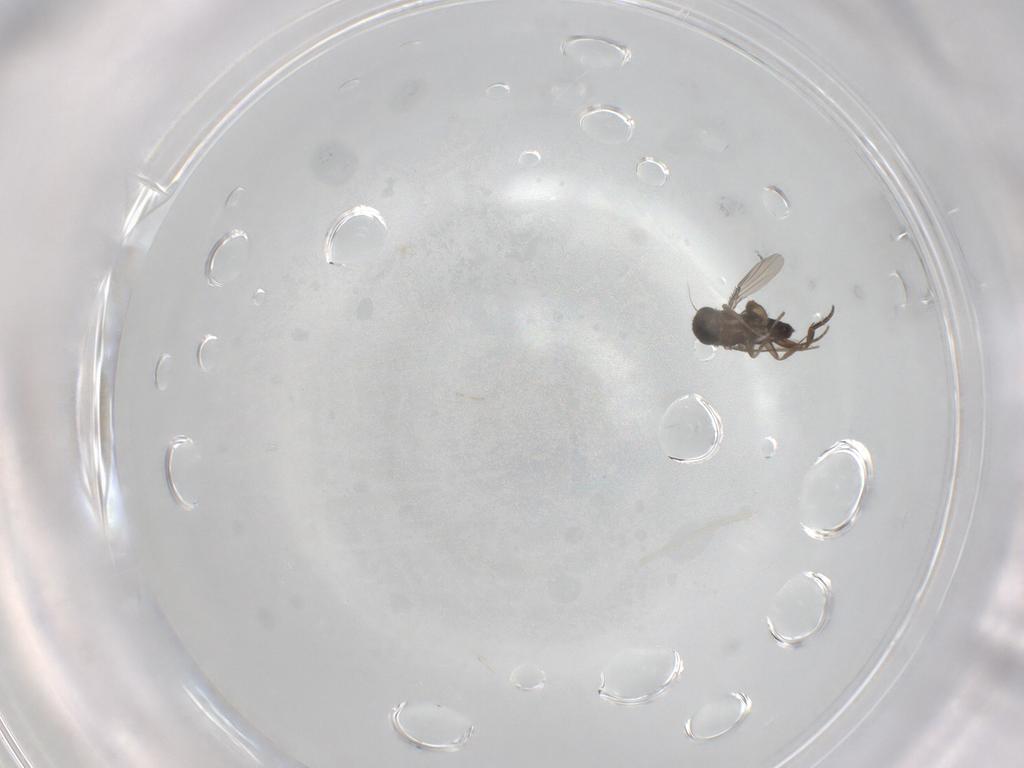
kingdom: Animalia
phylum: Arthropoda
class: Insecta
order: Diptera
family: Phoridae
